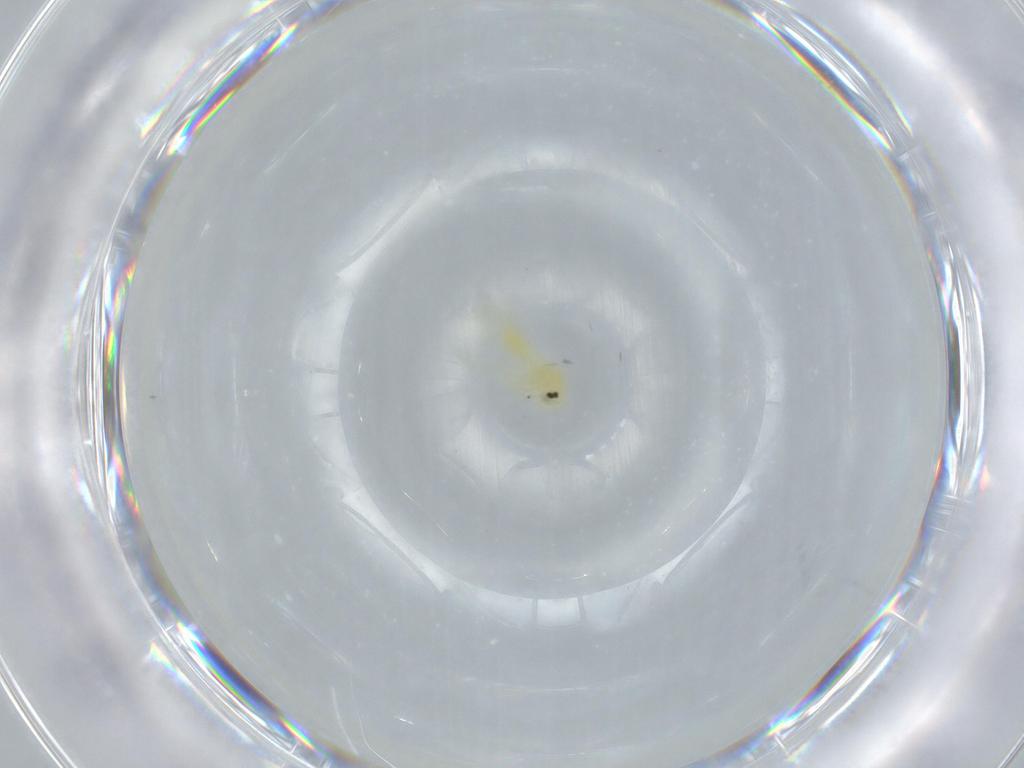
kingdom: Animalia
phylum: Arthropoda
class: Insecta
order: Hemiptera
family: Aleyrodidae
